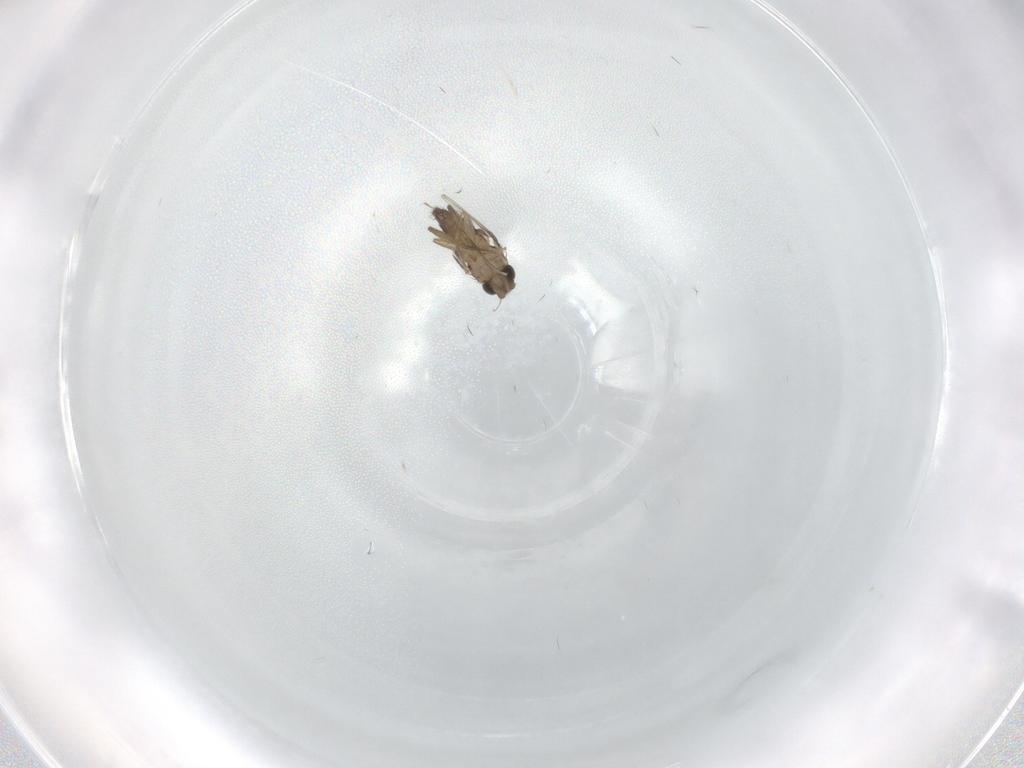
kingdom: Animalia
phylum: Arthropoda
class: Insecta
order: Diptera
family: Phoridae
